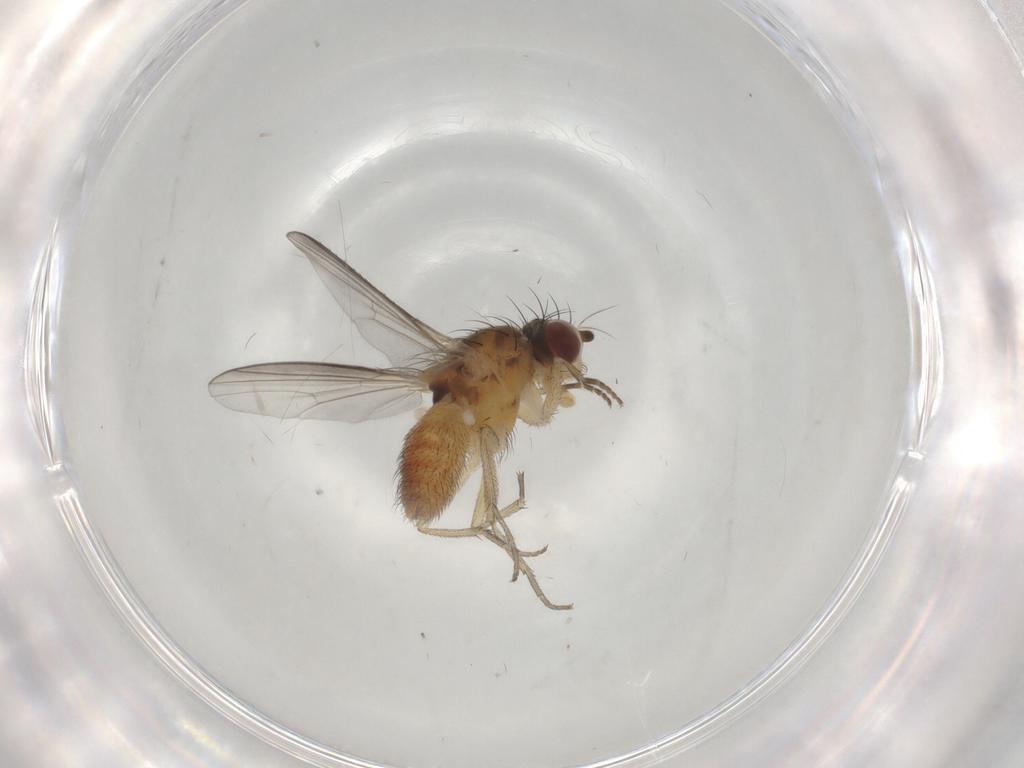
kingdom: Animalia
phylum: Arthropoda
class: Insecta
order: Diptera
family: Heleomyzidae
